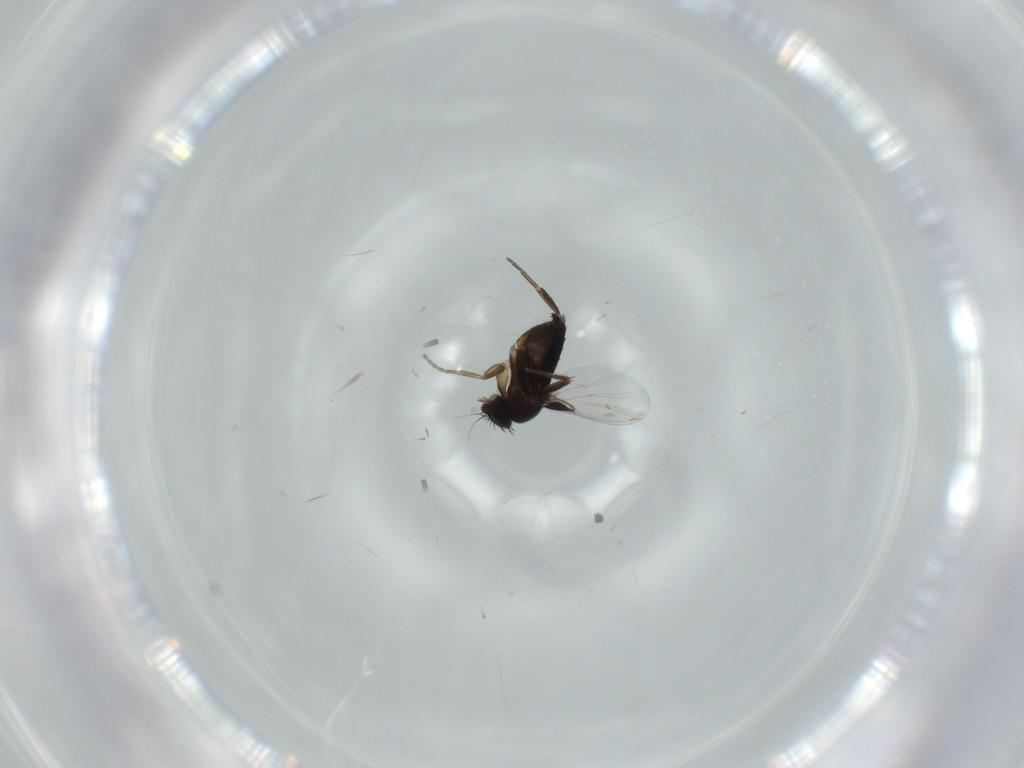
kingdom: Animalia
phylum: Arthropoda
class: Insecta
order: Diptera
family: Phoridae
